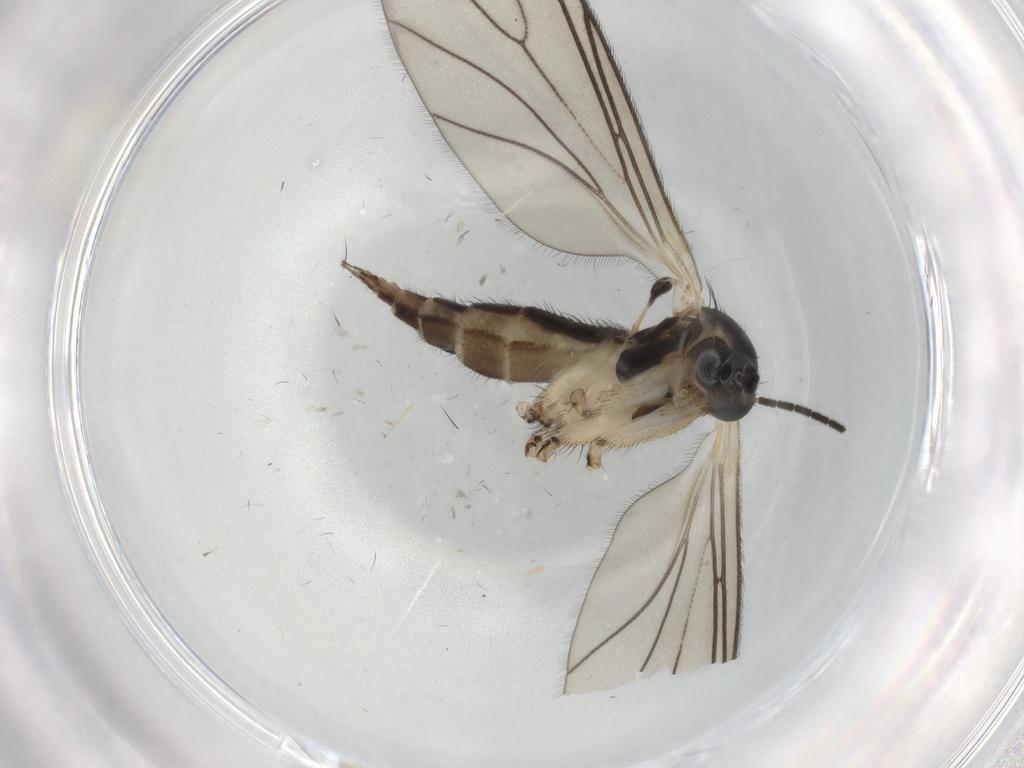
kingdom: Animalia
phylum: Arthropoda
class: Insecta
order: Diptera
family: Sciaridae
